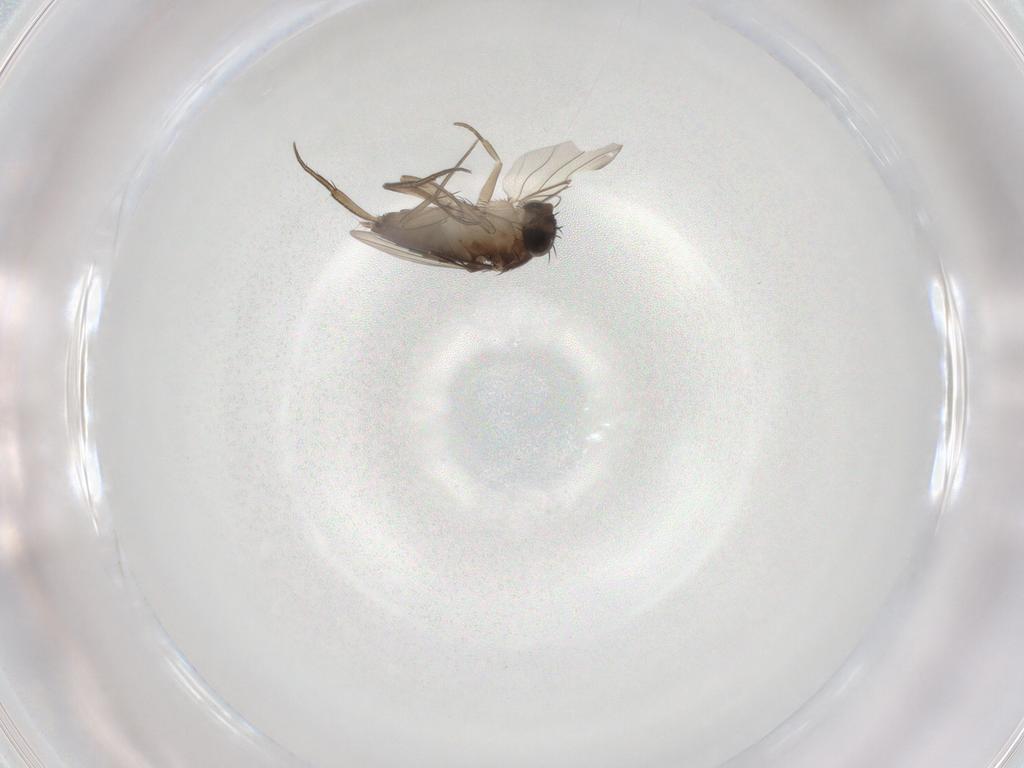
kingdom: Animalia
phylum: Arthropoda
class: Insecta
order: Diptera
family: Phoridae
